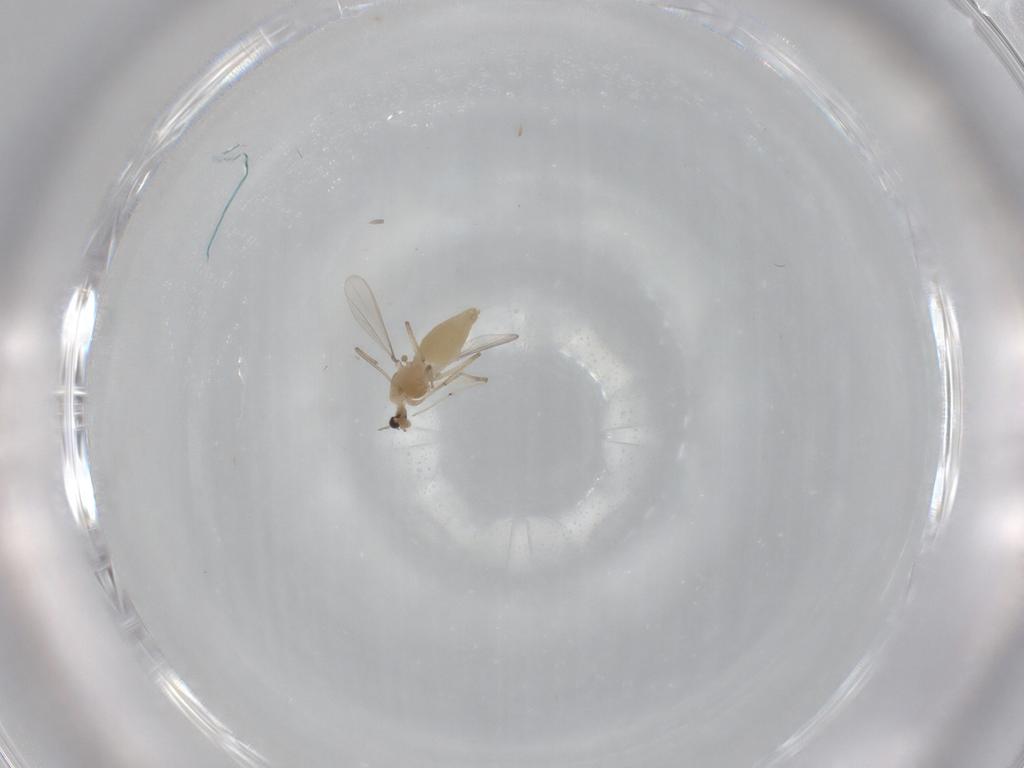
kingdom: Animalia
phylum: Arthropoda
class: Insecta
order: Diptera
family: Chironomidae
